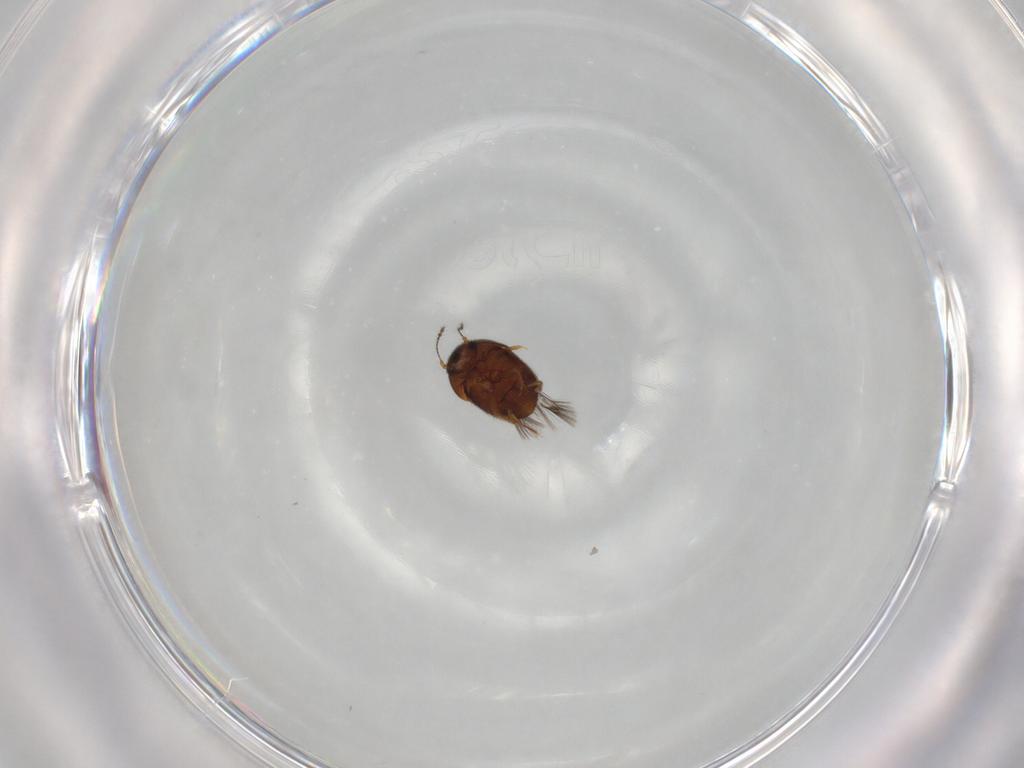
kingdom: Animalia
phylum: Arthropoda
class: Insecta
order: Coleoptera
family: Ptiliidae
